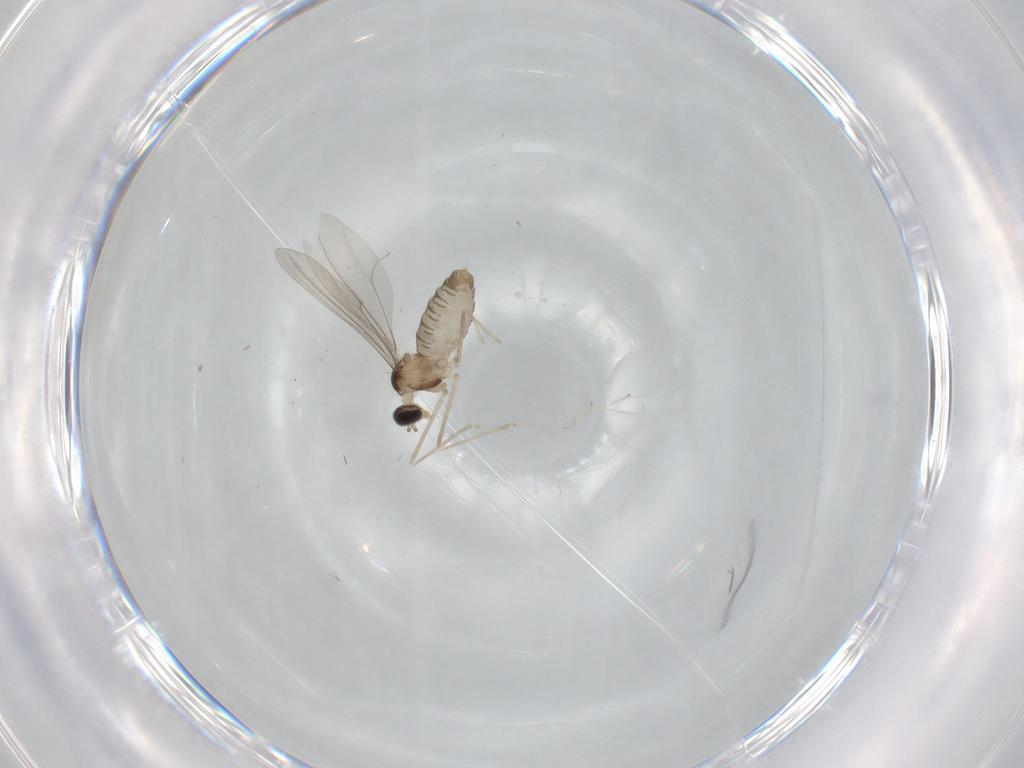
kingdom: Animalia
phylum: Arthropoda
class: Insecta
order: Diptera
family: Cecidomyiidae
